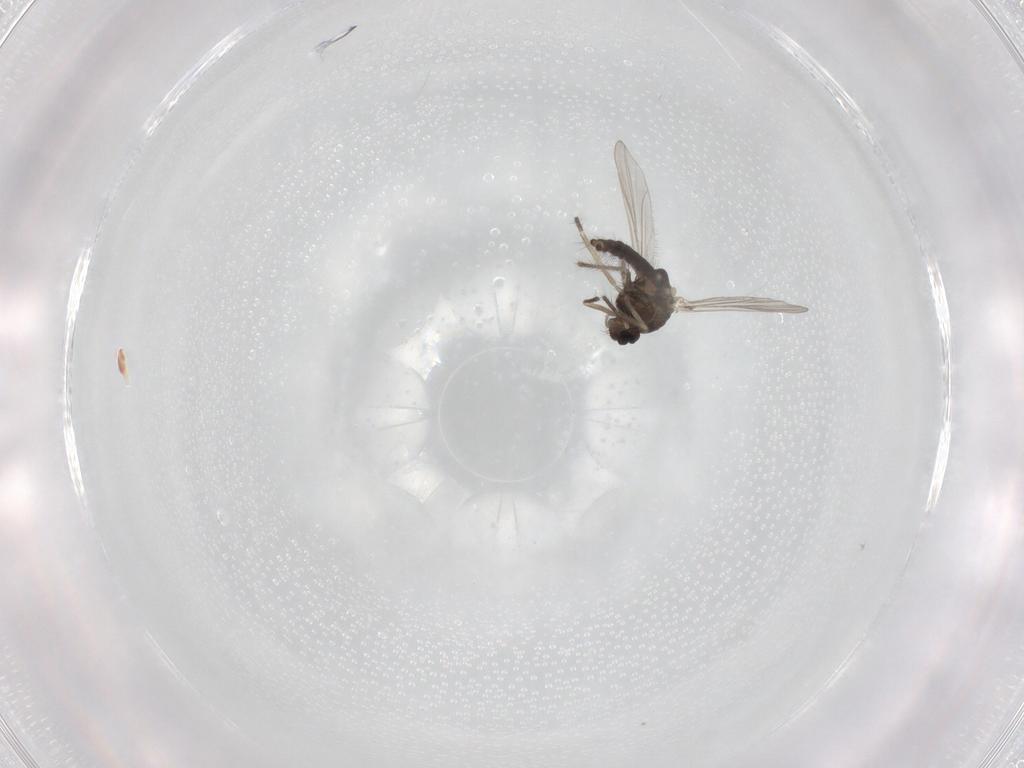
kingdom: Animalia
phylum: Arthropoda
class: Insecta
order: Diptera
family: Chironomidae
